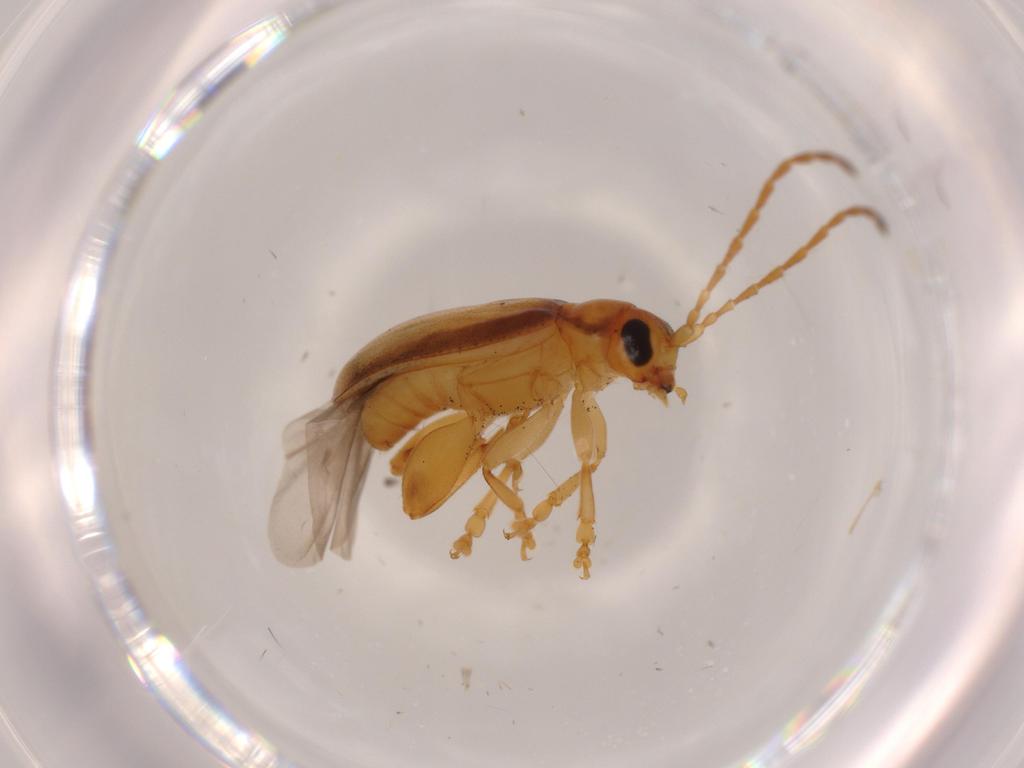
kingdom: Animalia
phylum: Arthropoda
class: Insecta
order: Coleoptera
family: Chrysomelidae
